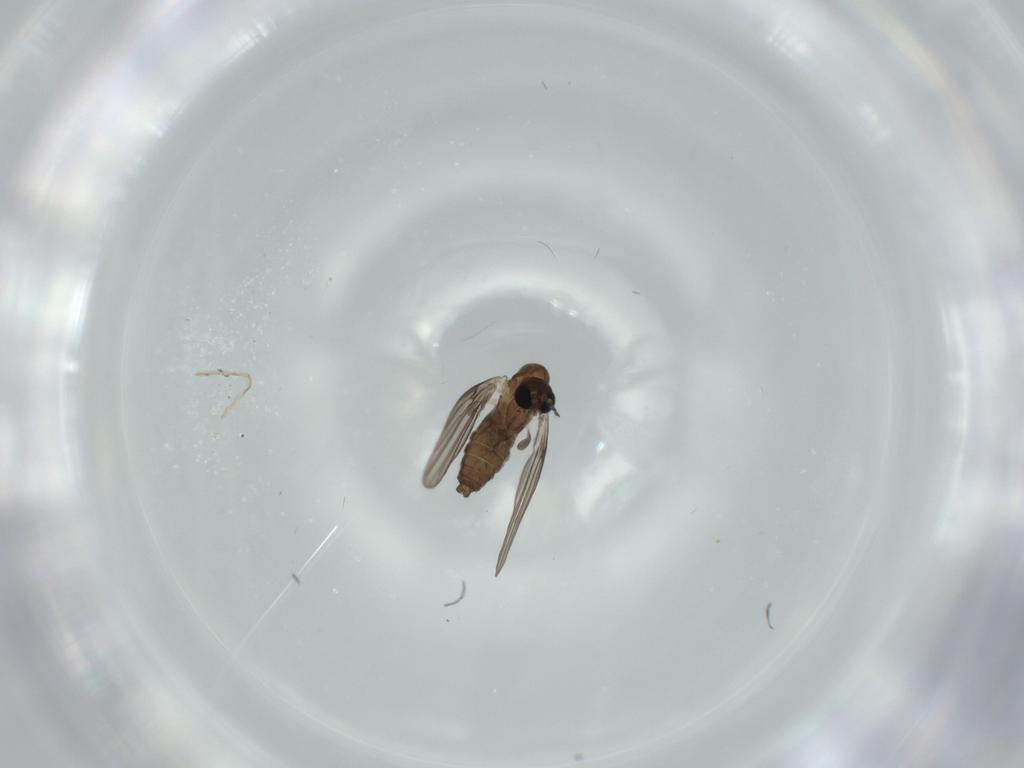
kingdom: Animalia
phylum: Arthropoda
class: Insecta
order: Diptera
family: Psychodidae
